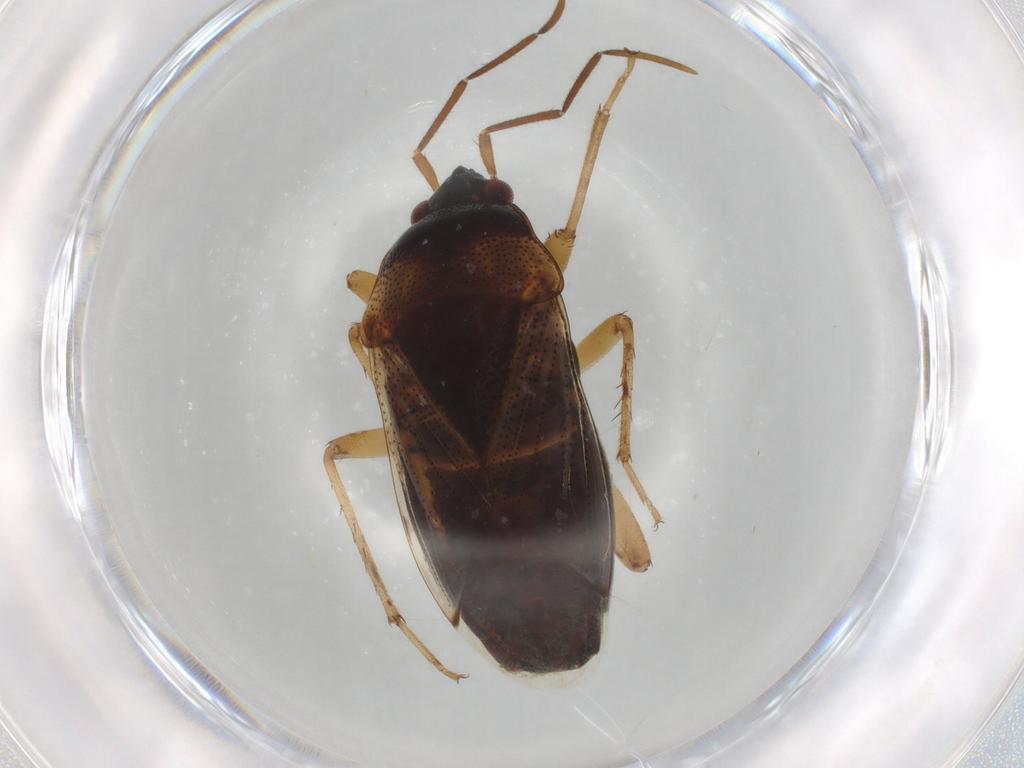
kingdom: Animalia
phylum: Arthropoda
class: Insecta
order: Hemiptera
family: Rhyparochromidae
